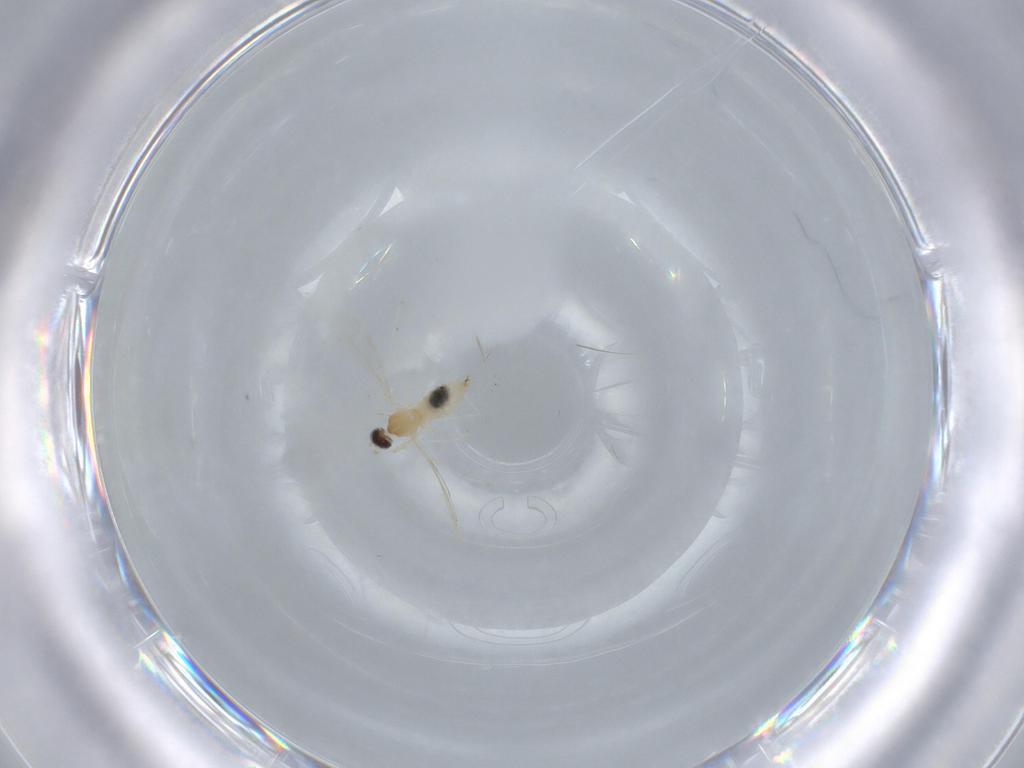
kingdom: Animalia
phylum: Arthropoda
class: Insecta
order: Diptera
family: Cecidomyiidae
